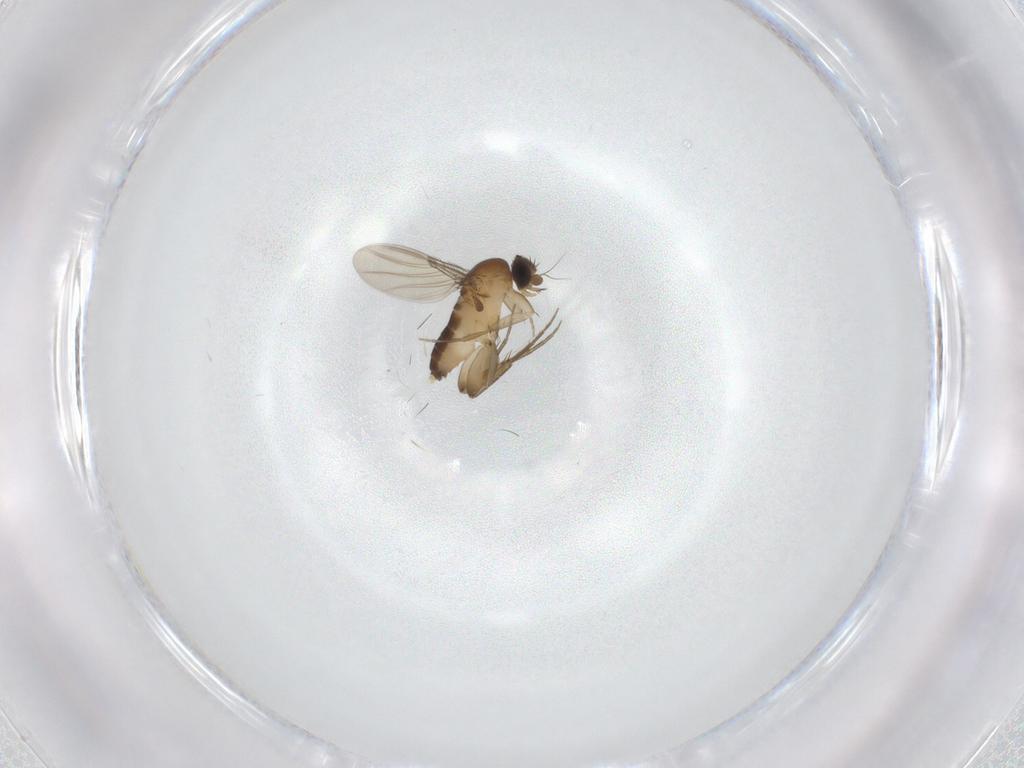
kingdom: Animalia
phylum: Arthropoda
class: Insecta
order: Diptera
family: Phoridae
